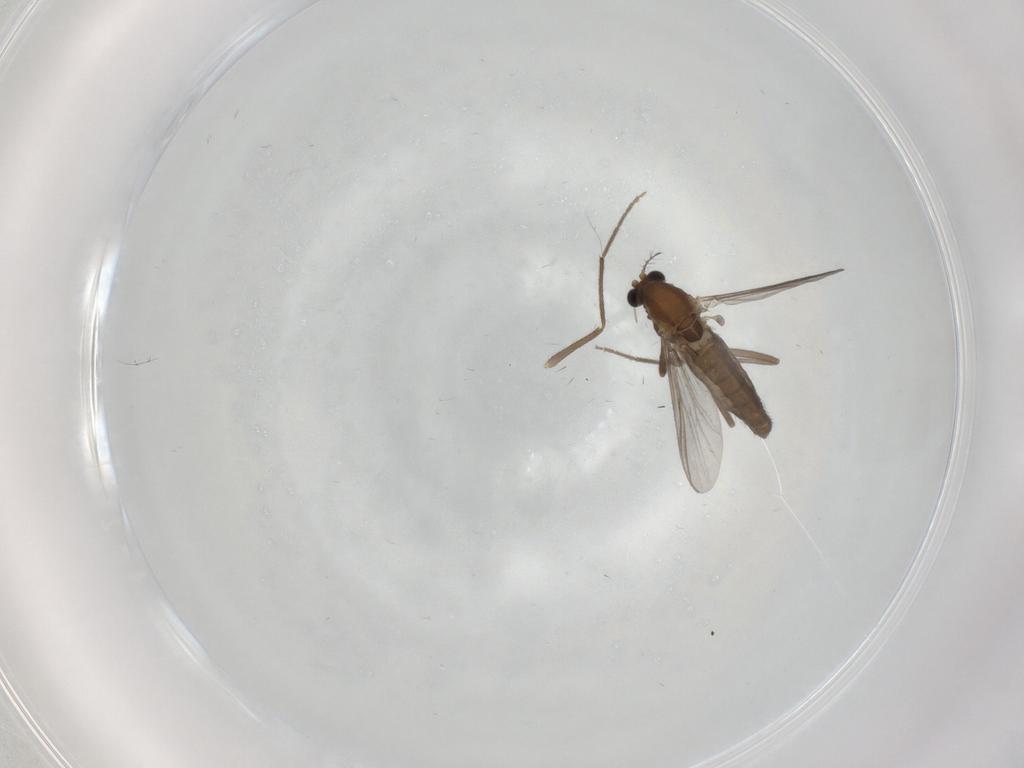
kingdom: Animalia
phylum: Arthropoda
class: Insecta
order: Diptera
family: Chironomidae
